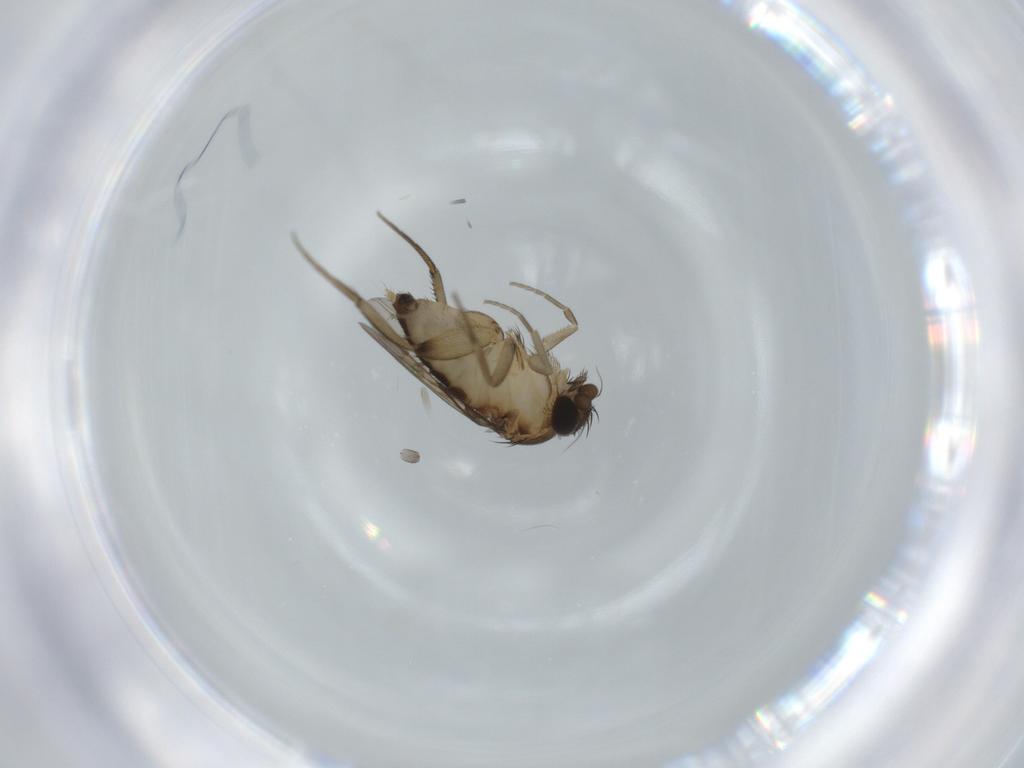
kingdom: Animalia
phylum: Arthropoda
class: Insecta
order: Diptera
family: Phoridae
